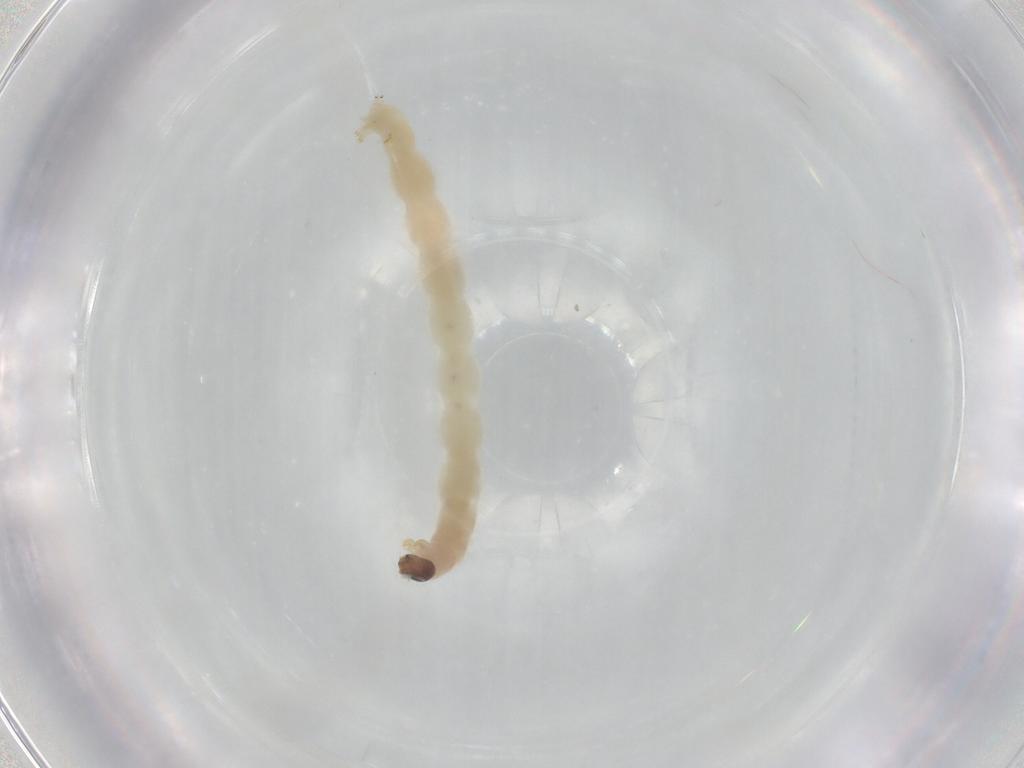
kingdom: Animalia
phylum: Arthropoda
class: Insecta
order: Diptera
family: Chironomidae
